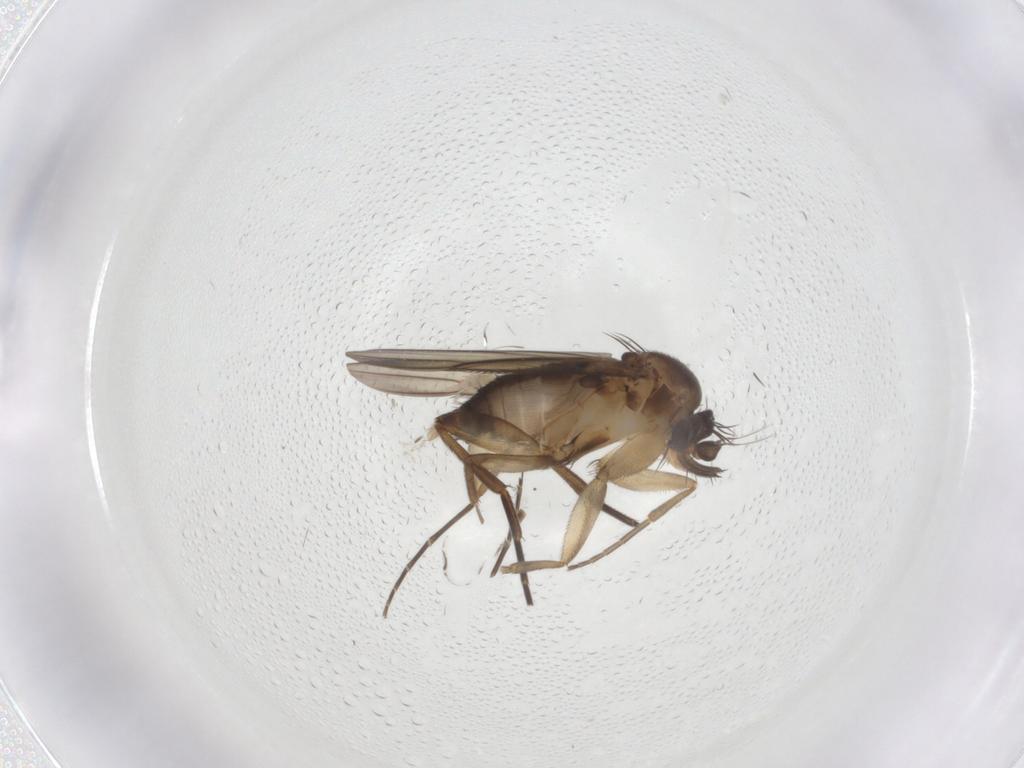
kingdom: Animalia
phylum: Arthropoda
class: Insecta
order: Diptera
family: Phoridae
